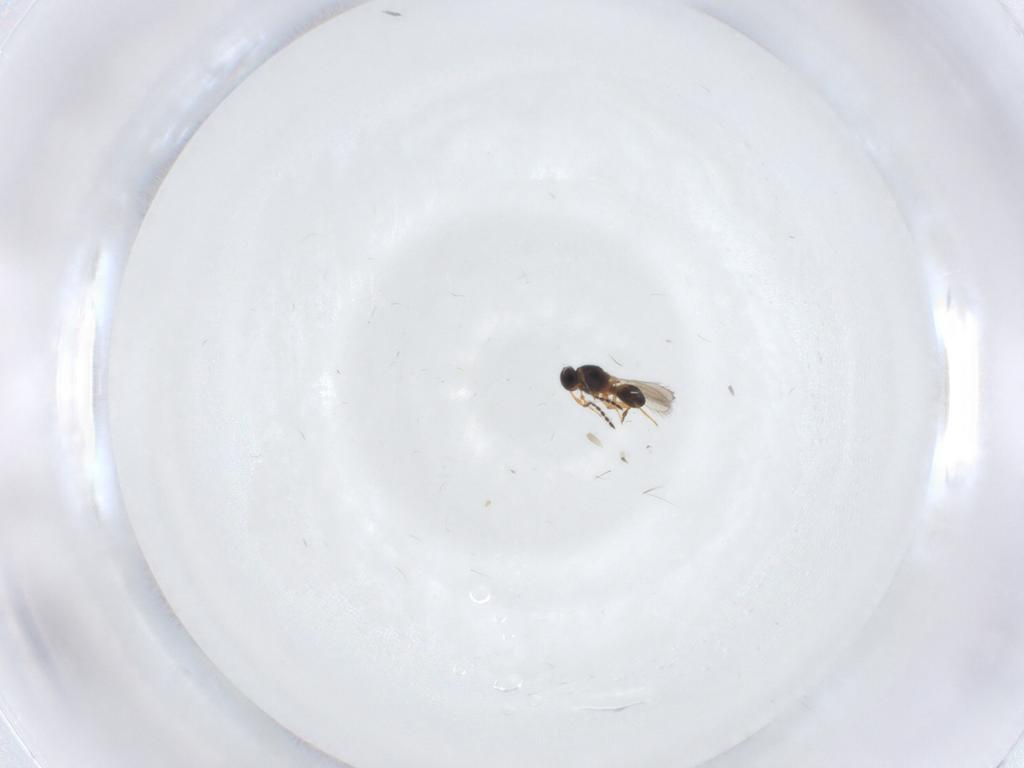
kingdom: Animalia
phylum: Arthropoda
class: Insecta
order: Hymenoptera
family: Platygastridae
